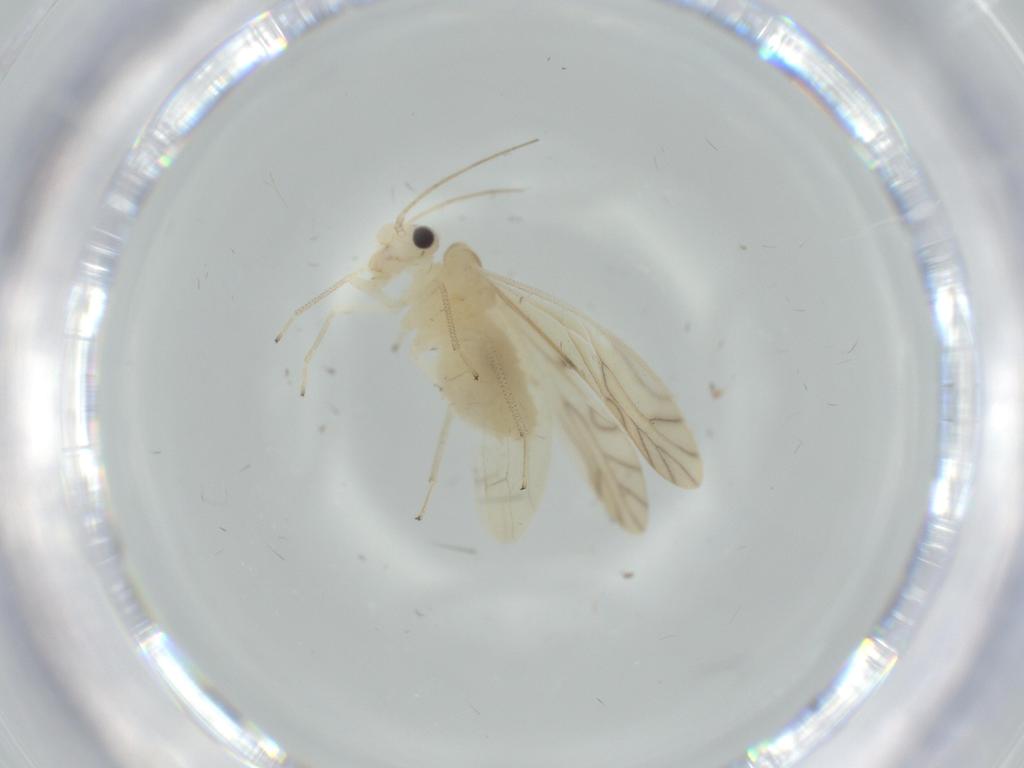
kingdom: Animalia
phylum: Arthropoda
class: Insecta
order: Psocodea
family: Caeciliusidae
